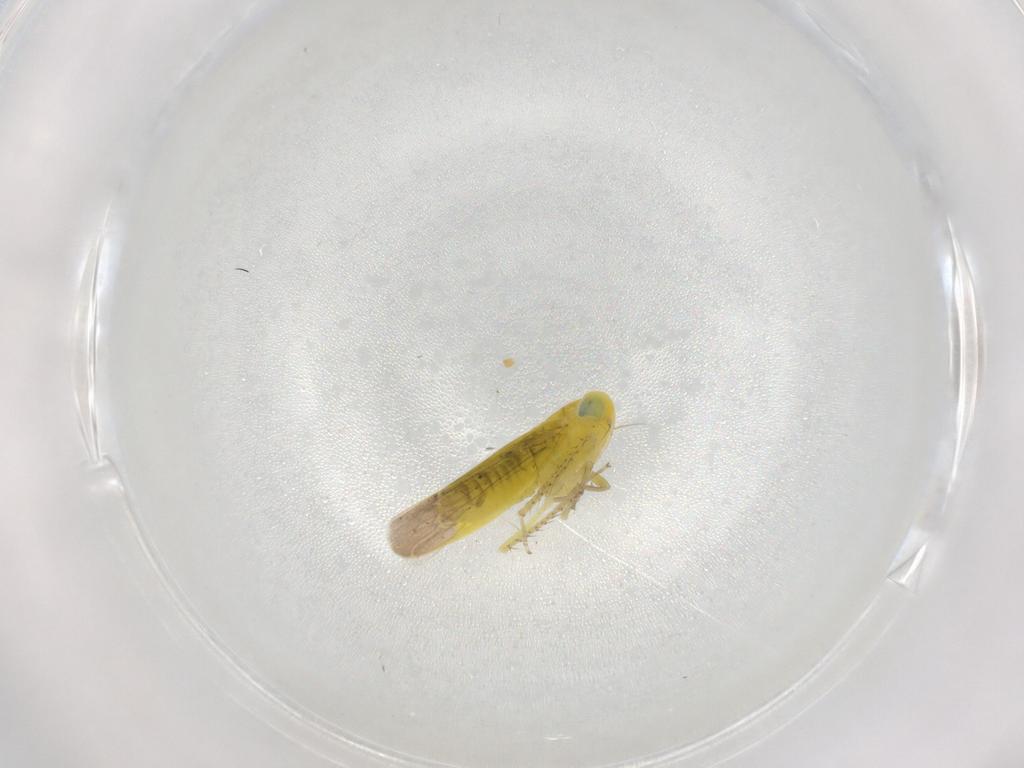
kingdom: Animalia
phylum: Arthropoda
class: Insecta
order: Hemiptera
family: Cicadellidae
